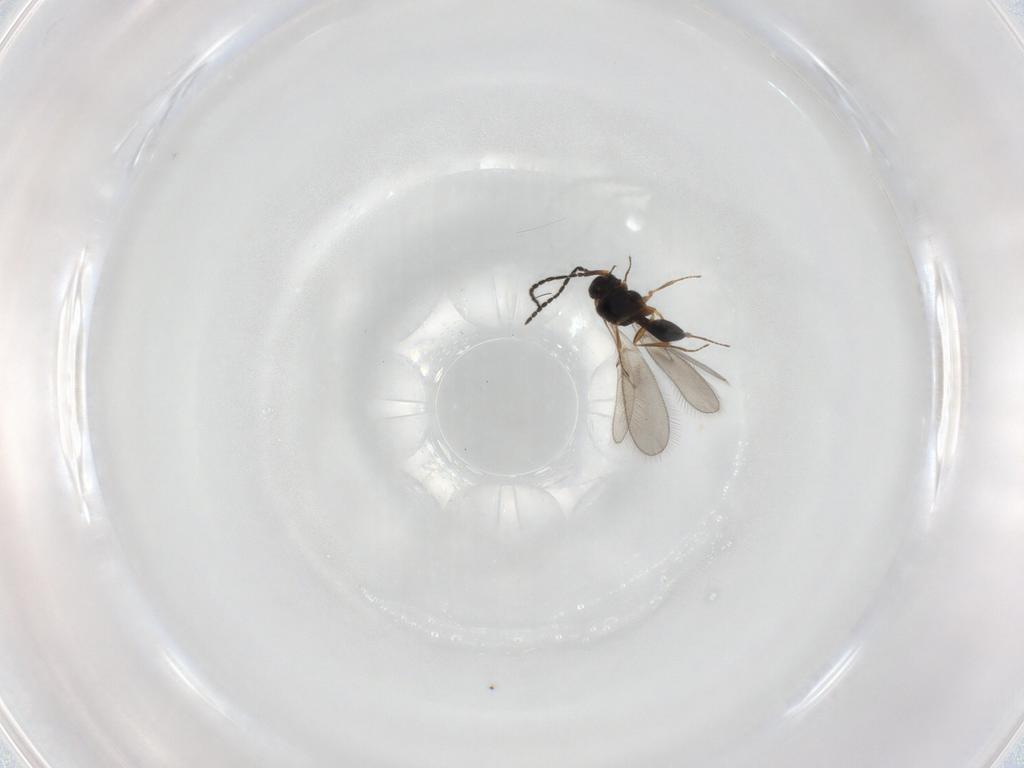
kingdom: Animalia
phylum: Arthropoda
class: Insecta
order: Hymenoptera
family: Scelionidae
